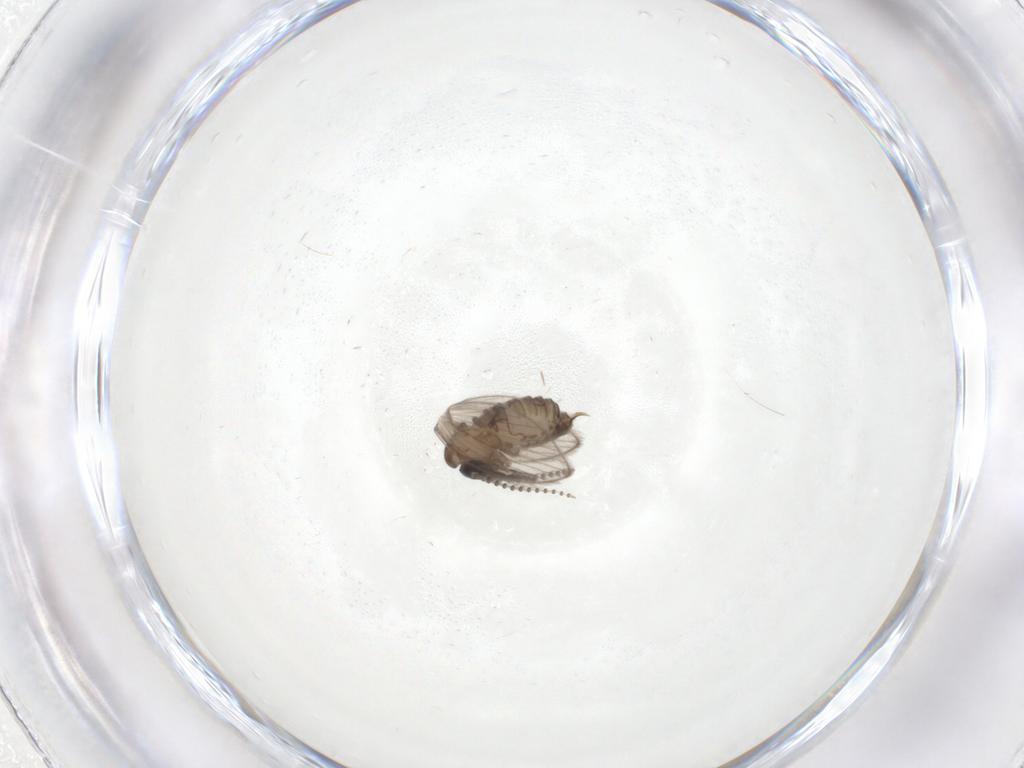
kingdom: Animalia
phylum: Arthropoda
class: Insecta
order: Diptera
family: Psychodidae
